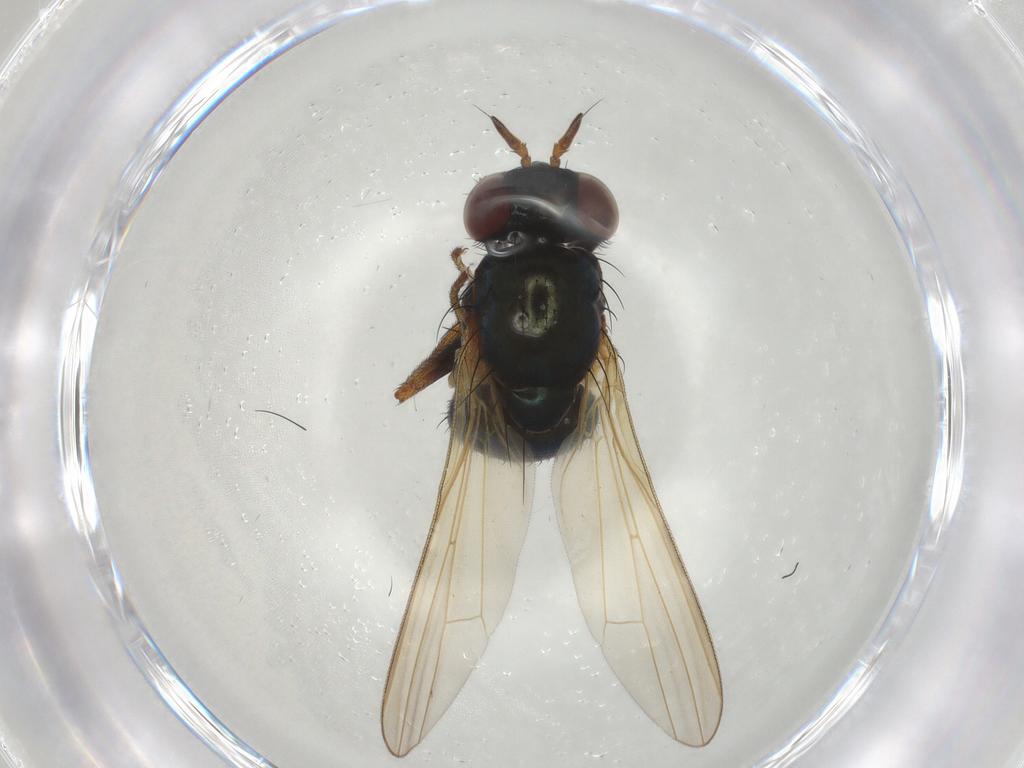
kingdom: Animalia
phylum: Arthropoda
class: Insecta
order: Diptera
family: Lauxaniidae
